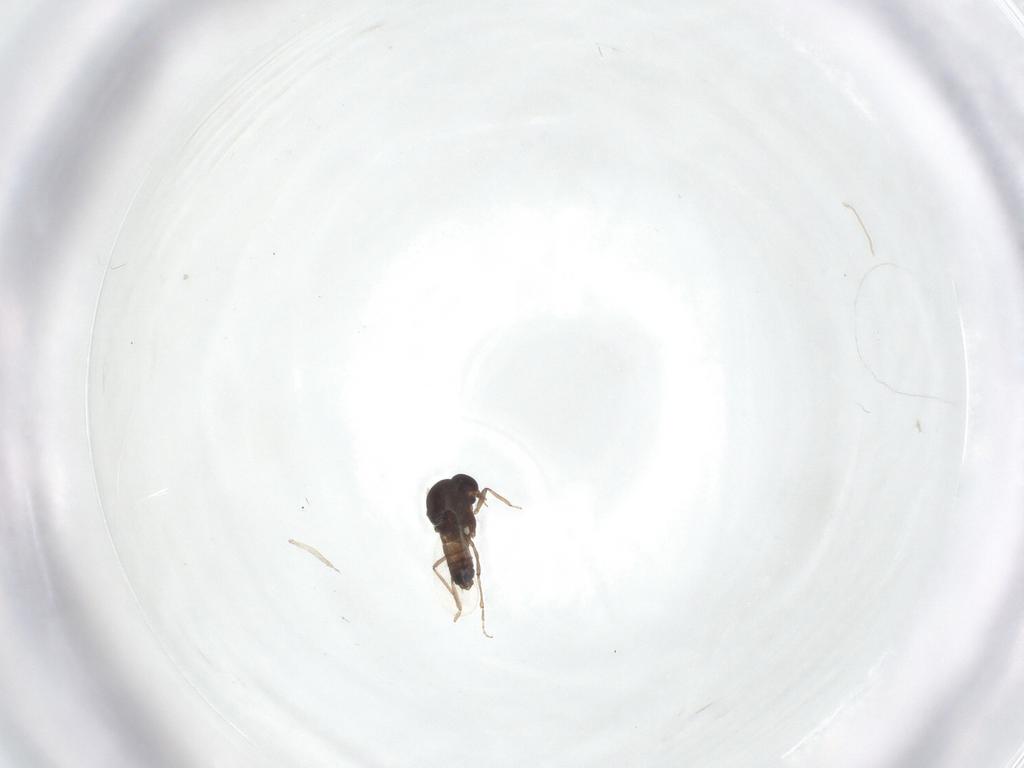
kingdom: Animalia
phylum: Arthropoda
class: Insecta
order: Diptera
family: Ceratopogonidae
